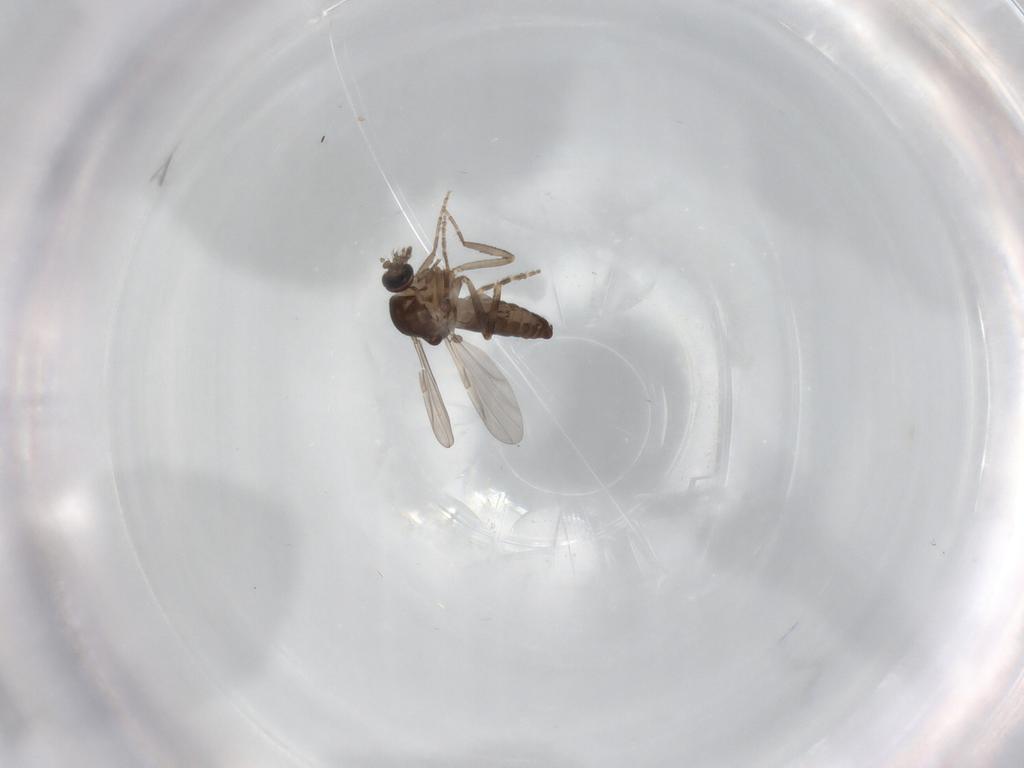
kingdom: Animalia
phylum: Arthropoda
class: Insecta
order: Diptera
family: Ceratopogonidae
